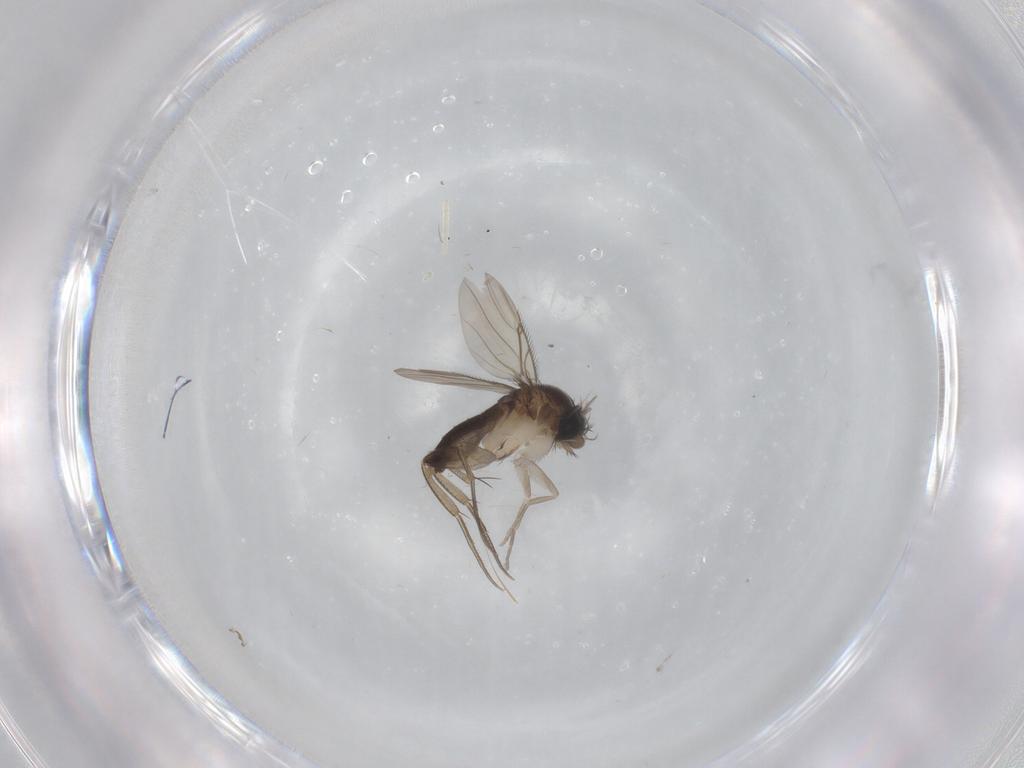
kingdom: Animalia
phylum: Arthropoda
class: Insecta
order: Diptera
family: Phoridae
